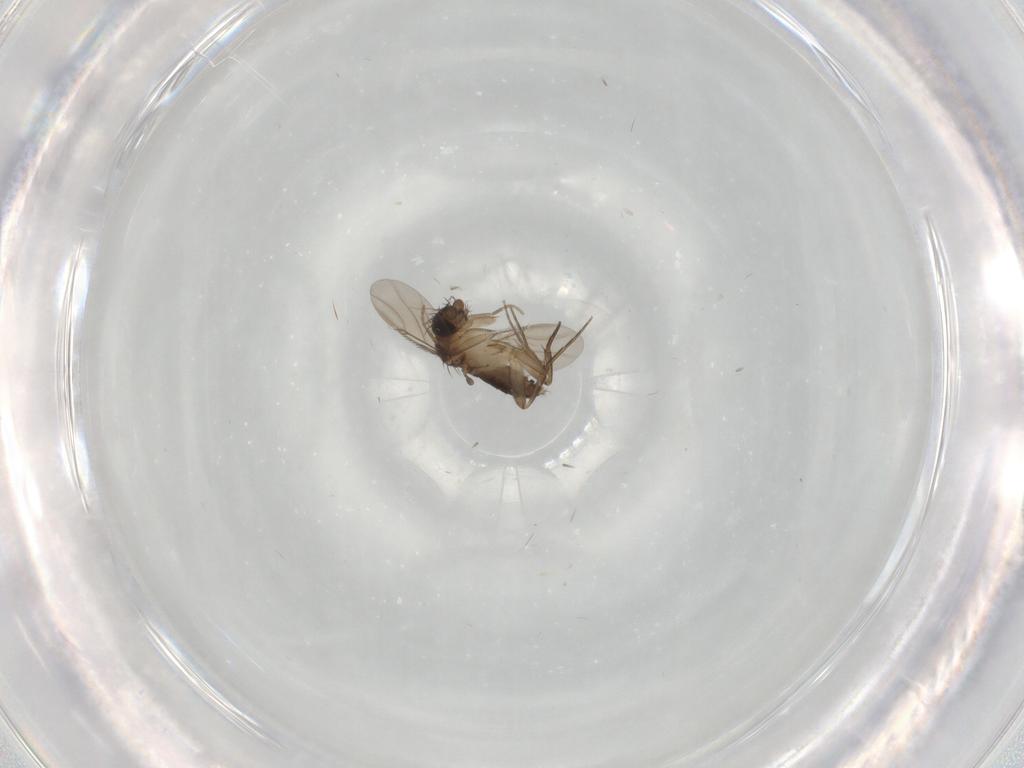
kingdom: Animalia
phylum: Arthropoda
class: Insecta
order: Diptera
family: Phoridae
